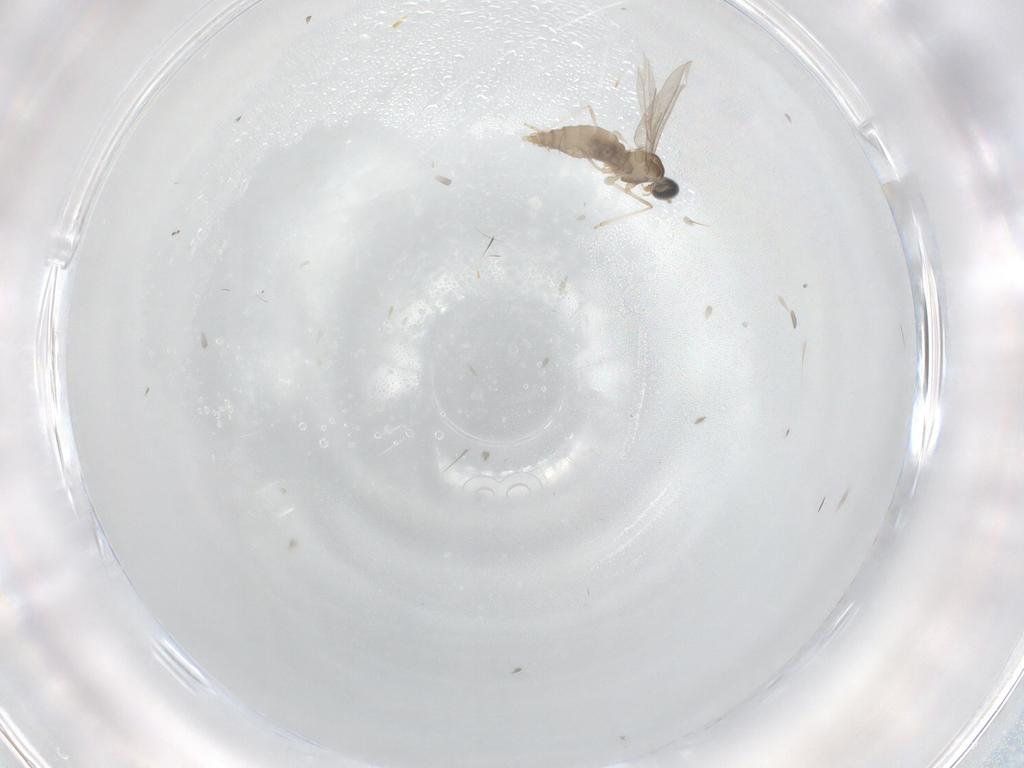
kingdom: Animalia
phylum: Arthropoda
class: Insecta
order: Diptera
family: Cecidomyiidae
